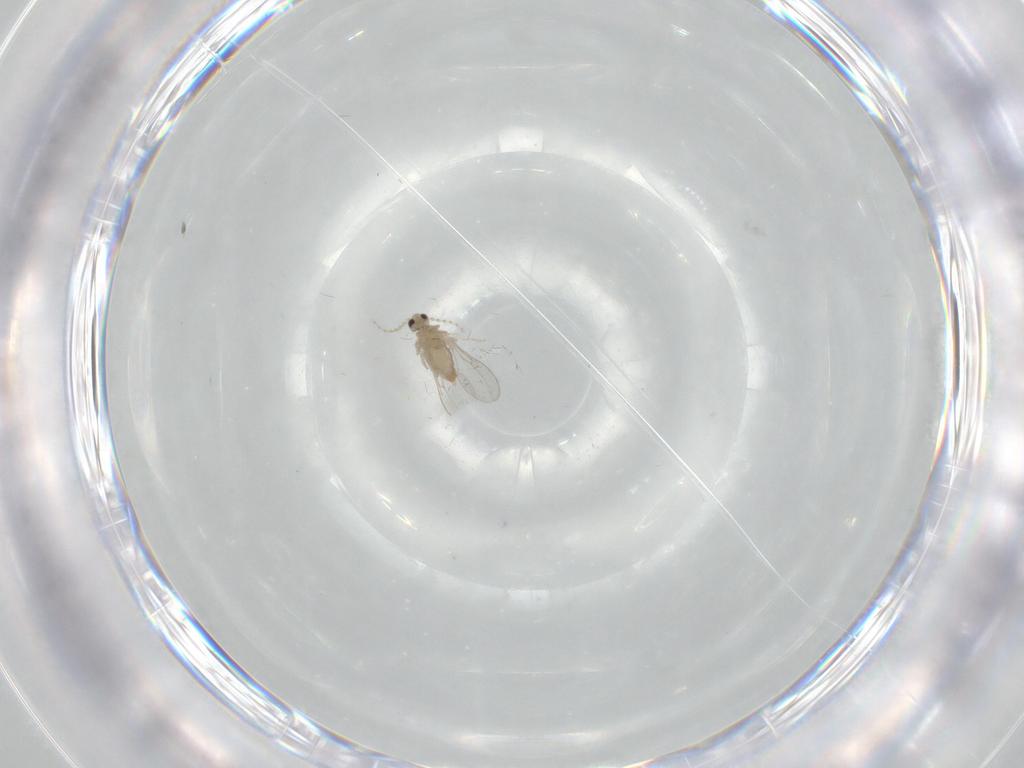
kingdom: Animalia
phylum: Arthropoda
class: Insecta
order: Diptera
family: Cecidomyiidae
